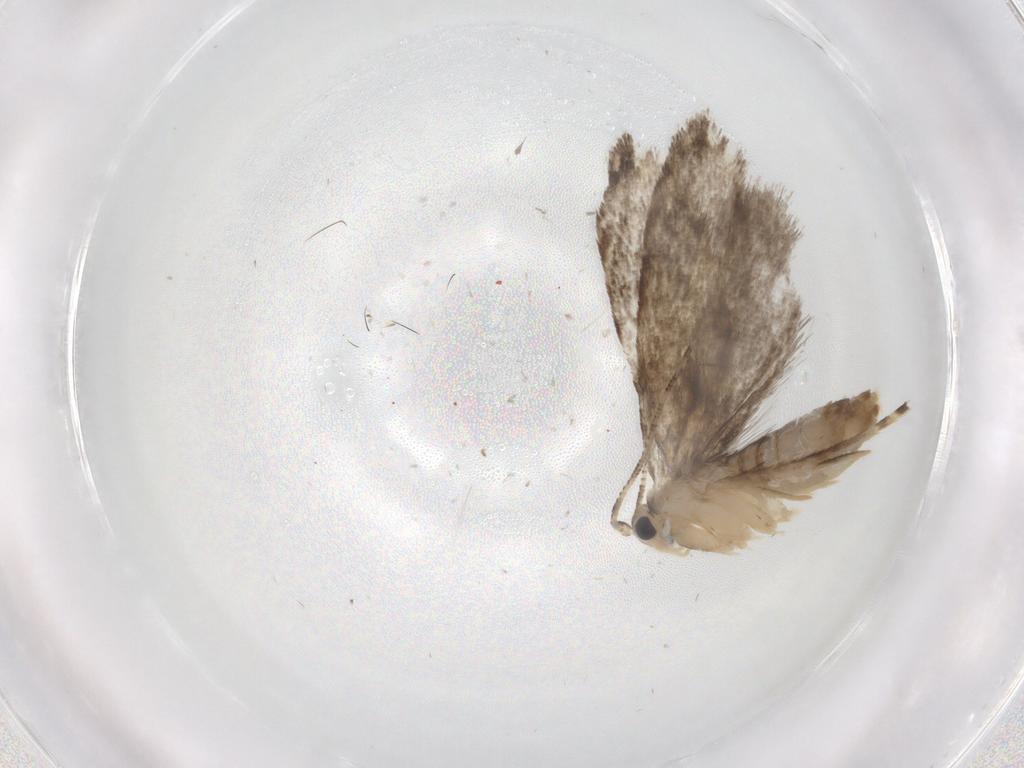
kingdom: Animalia
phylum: Arthropoda
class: Insecta
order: Lepidoptera
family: Tineidae
